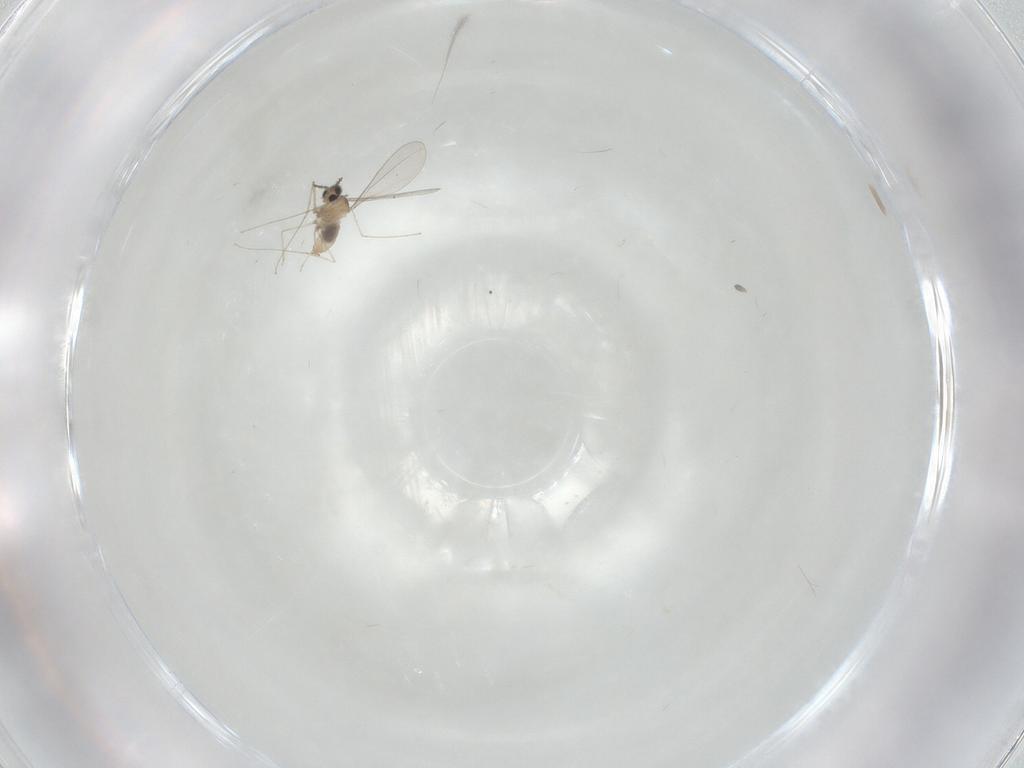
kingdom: Animalia
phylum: Arthropoda
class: Insecta
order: Diptera
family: Cecidomyiidae
